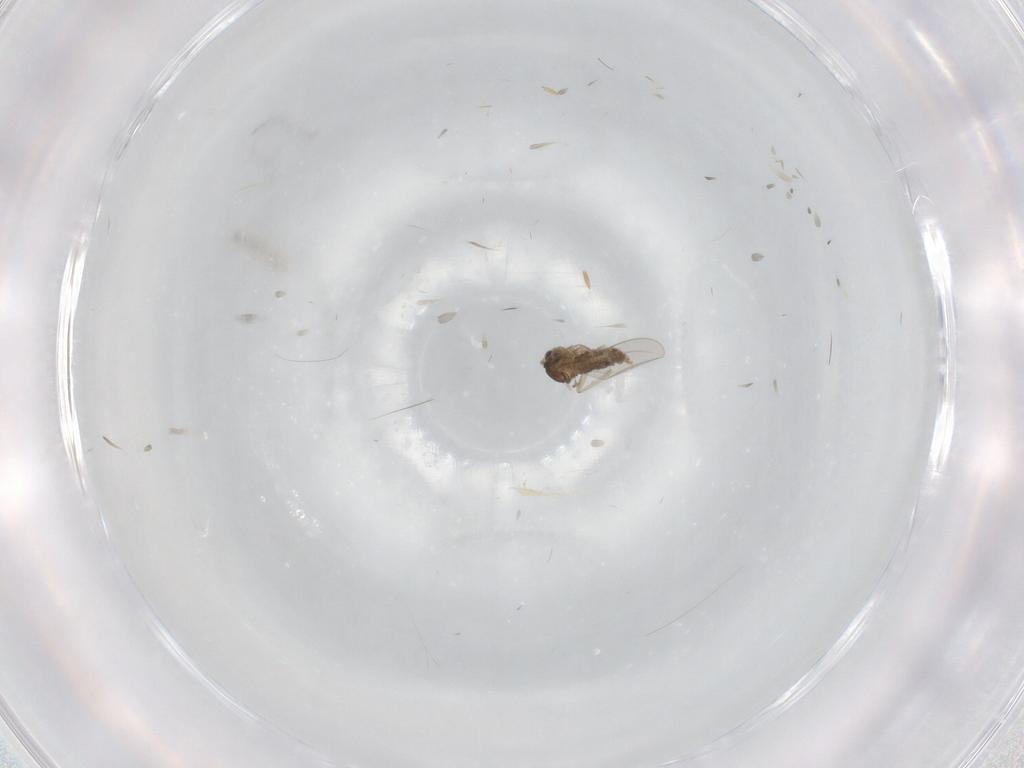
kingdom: Animalia
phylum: Arthropoda
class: Insecta
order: Diptera
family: Cecidomyiidae
